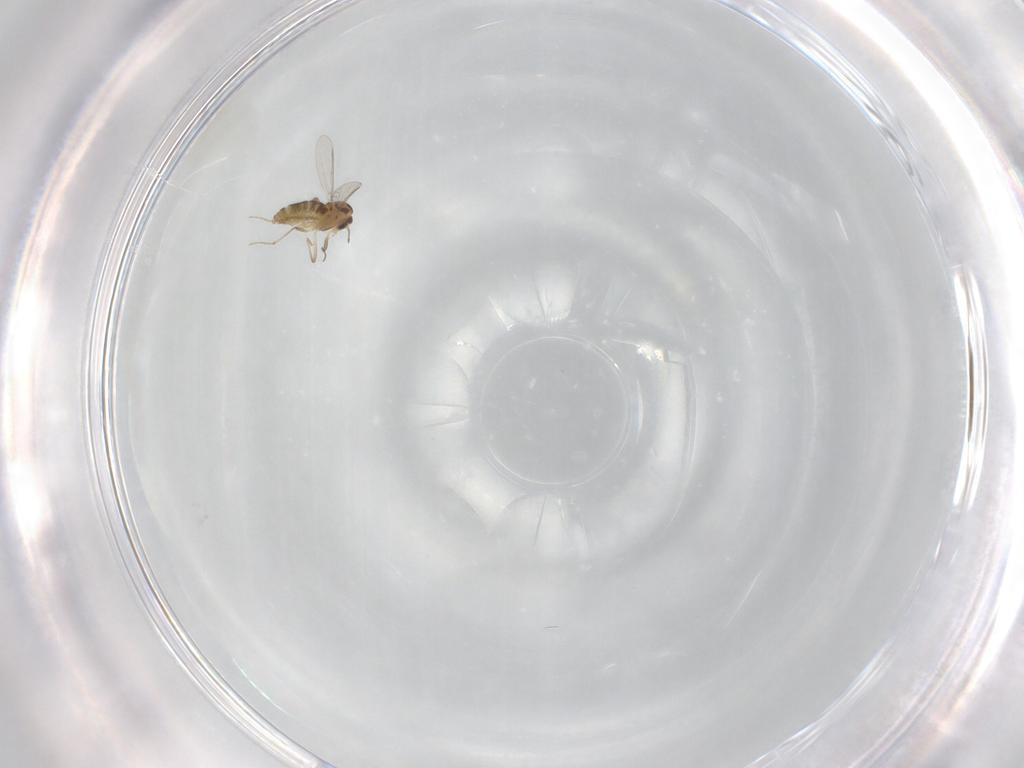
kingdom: Animalia
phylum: Arthropoda
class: Insecta
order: Diptera
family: Chironomidae
